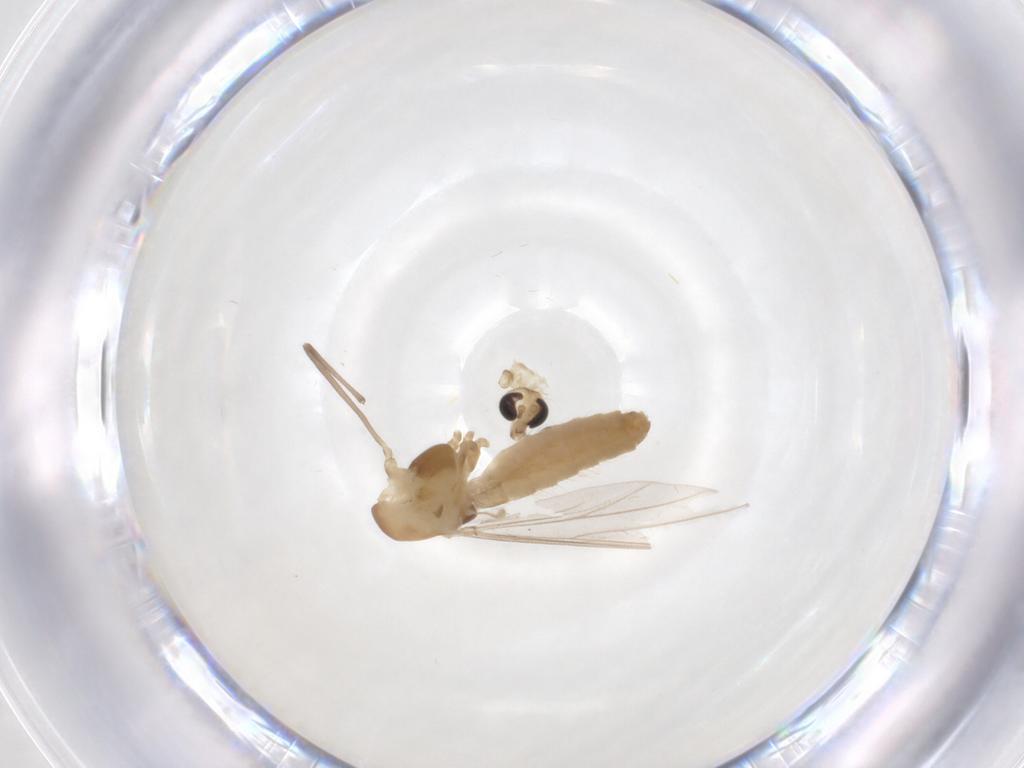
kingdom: Animalia
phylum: Arthropoda
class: Insecta
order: Diptera
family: Chironomidae
